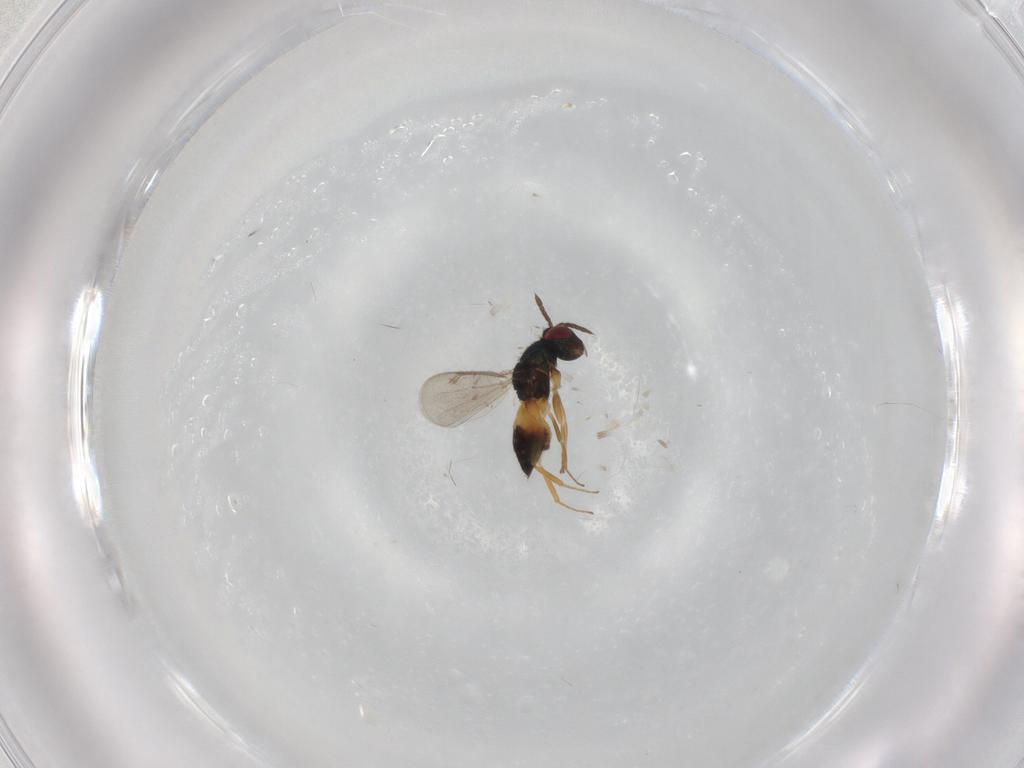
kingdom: Animalia
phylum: Arthropoda
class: Insecta
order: Hymenoptera
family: Eulophidae
